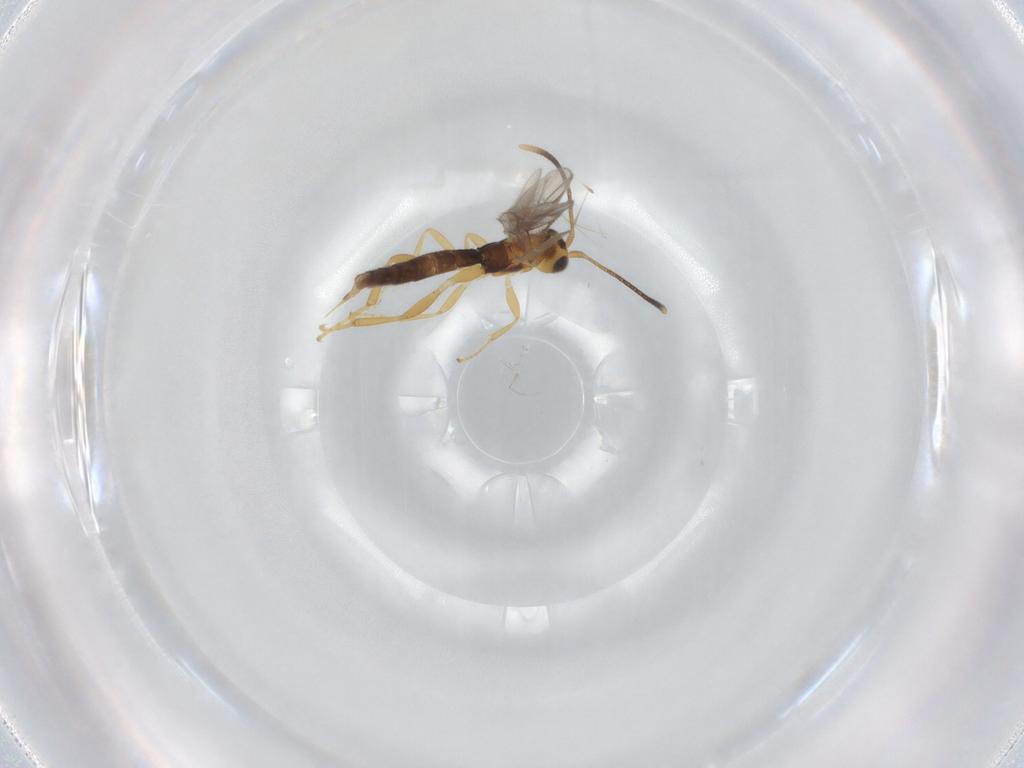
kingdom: Animalia
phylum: Arthropoda
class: Insecta
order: Hymenoptera
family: Ichneumonidae
